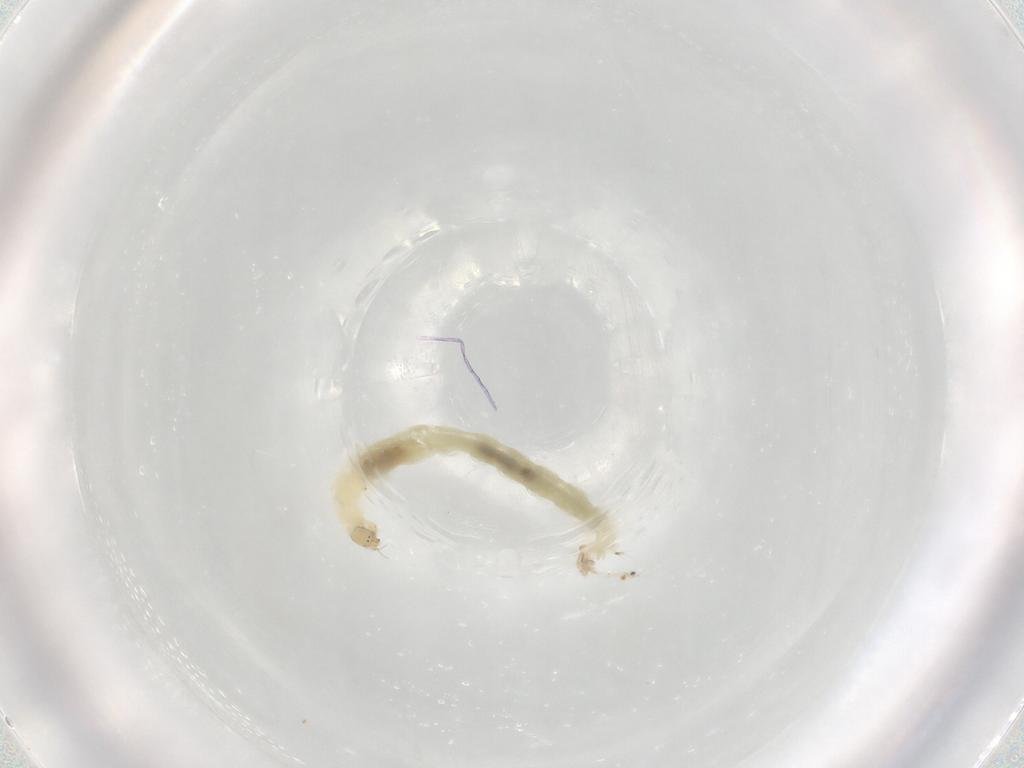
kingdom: Animalia
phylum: Arthropoda
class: Insecta
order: Diptera
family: Chironomidae
